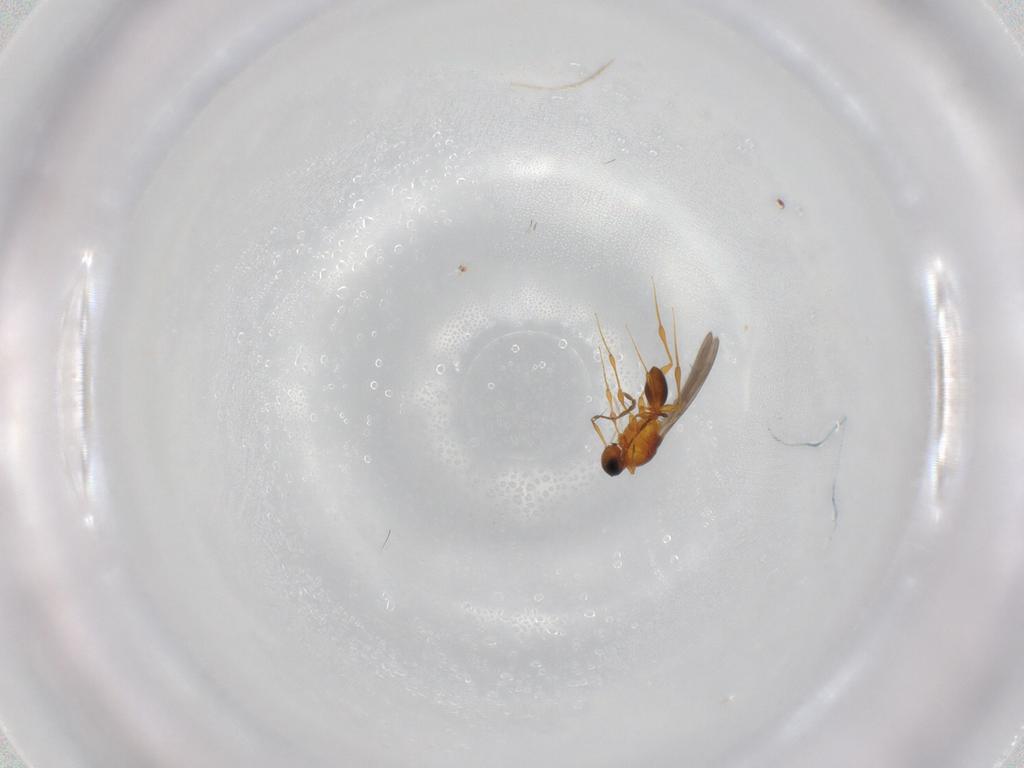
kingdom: Animalia
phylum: Arthropoda
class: Insecta
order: Hymenoptera
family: Platygastridae
